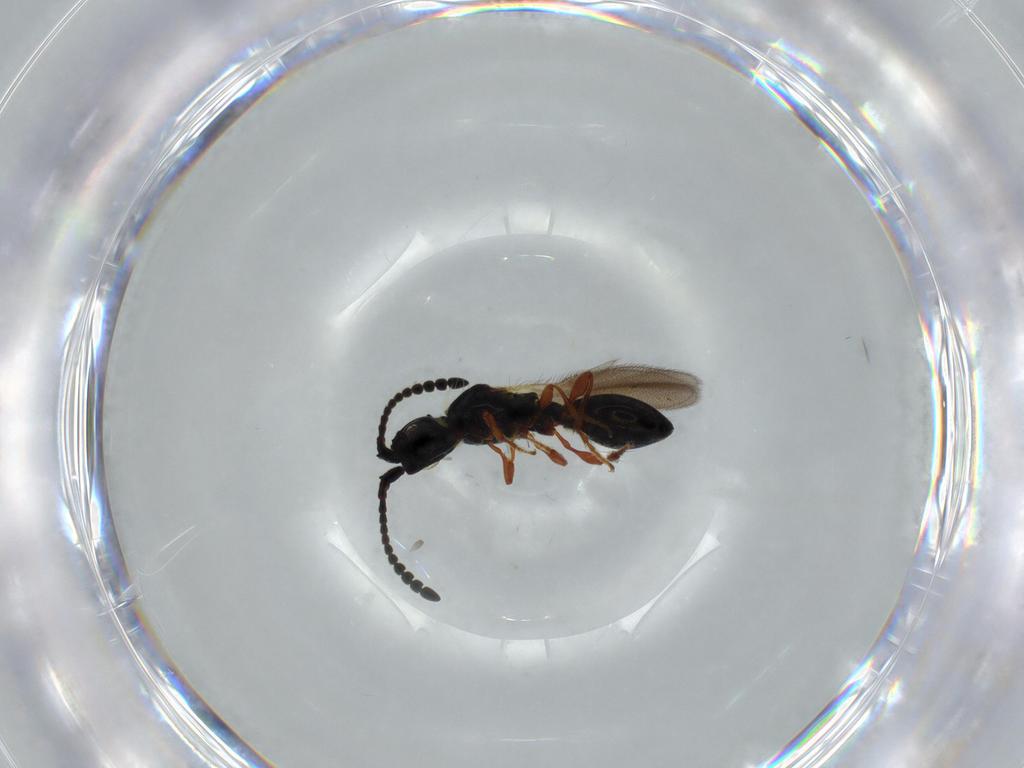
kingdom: Animalia
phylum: Arthropoda
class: Insecta
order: Hymenoptera
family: Diapriidae
